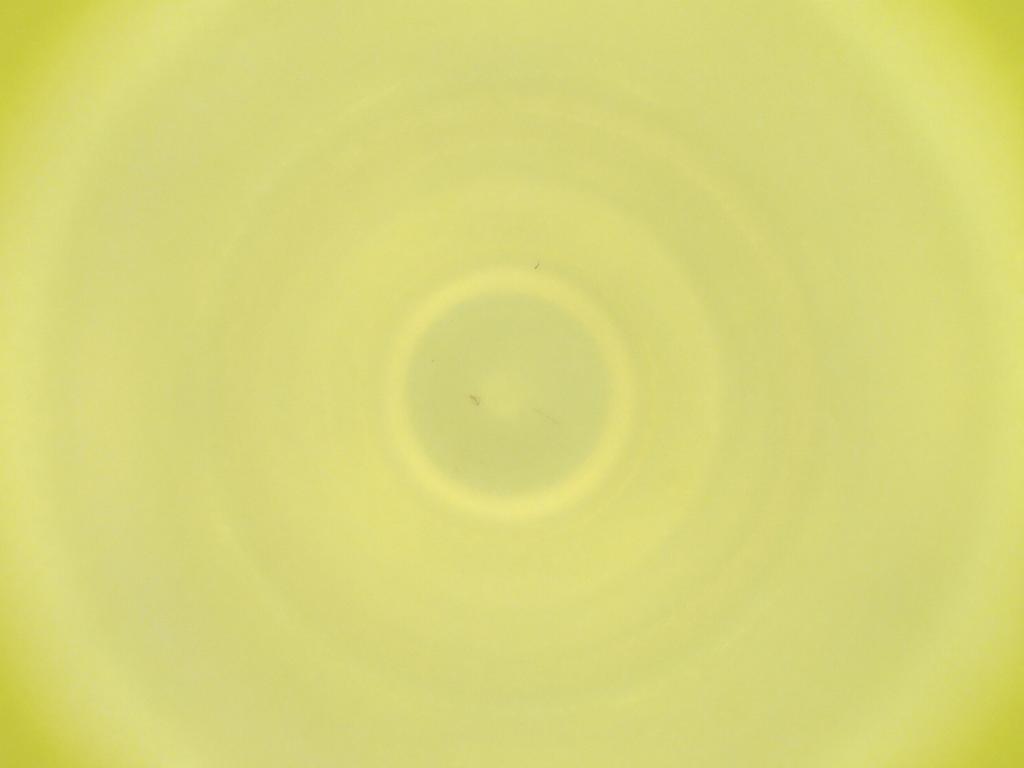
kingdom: Animalia
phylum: Arthropoda
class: Insecta
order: Diptera
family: Cecidomyiidae
